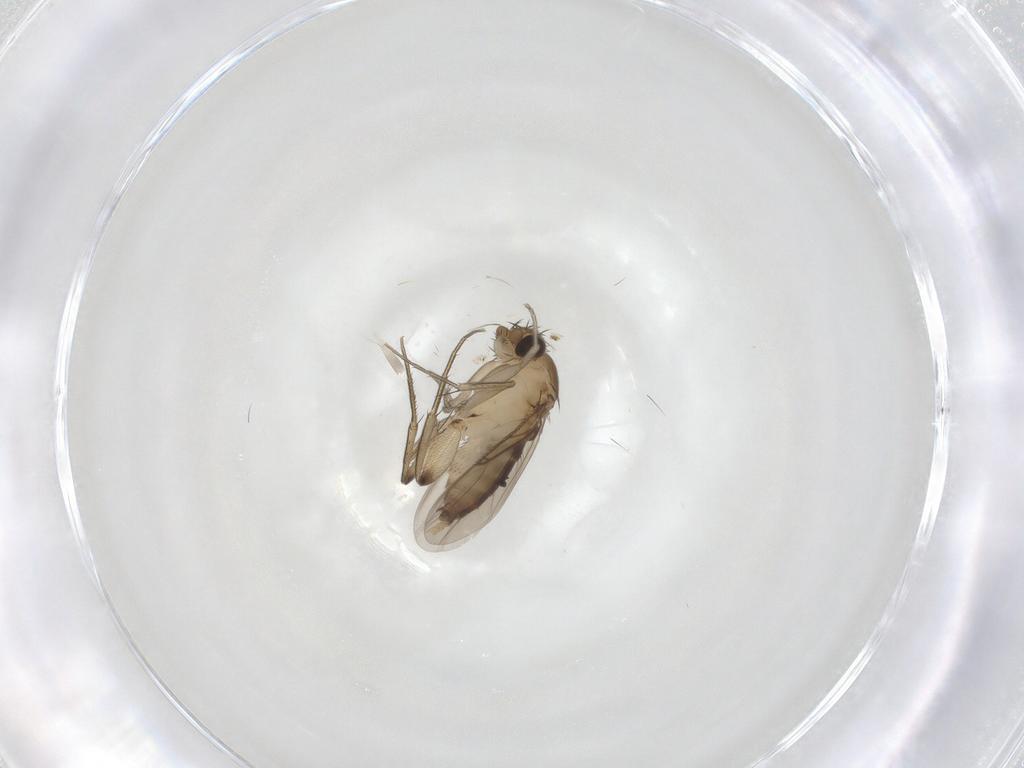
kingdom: Animalia
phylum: Arthropoda
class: Insecta
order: Diptera
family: Phoridae
